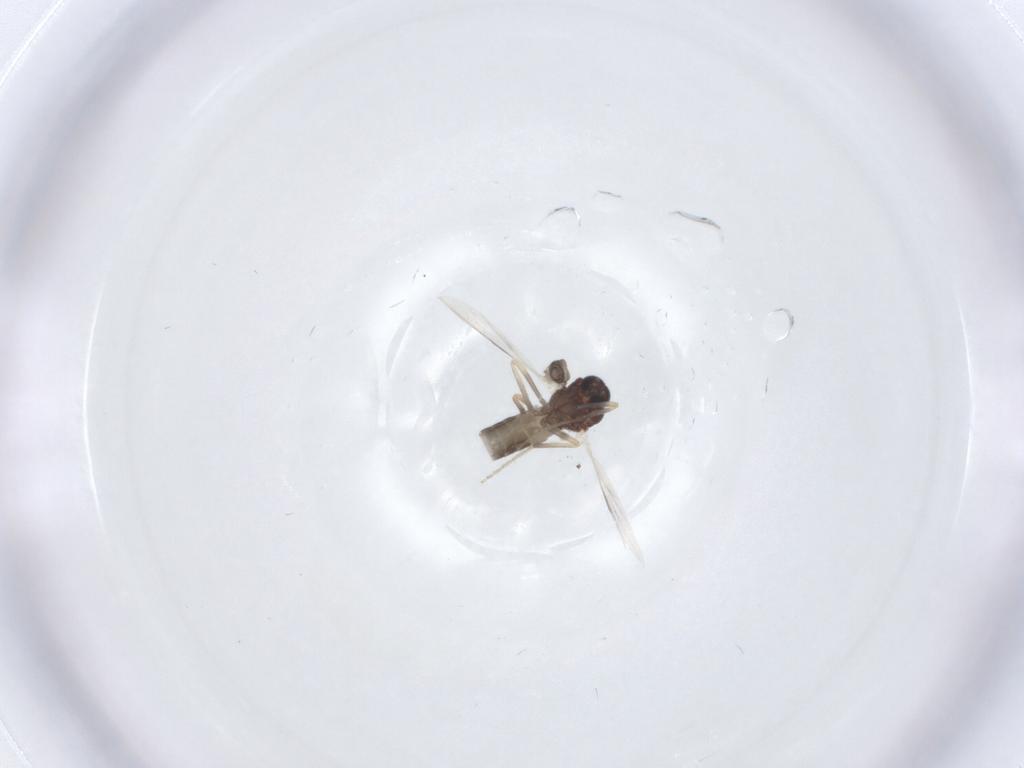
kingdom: Animalia
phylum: Arthropoda
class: Insecta
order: Diptera
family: Ceratopogonidae
